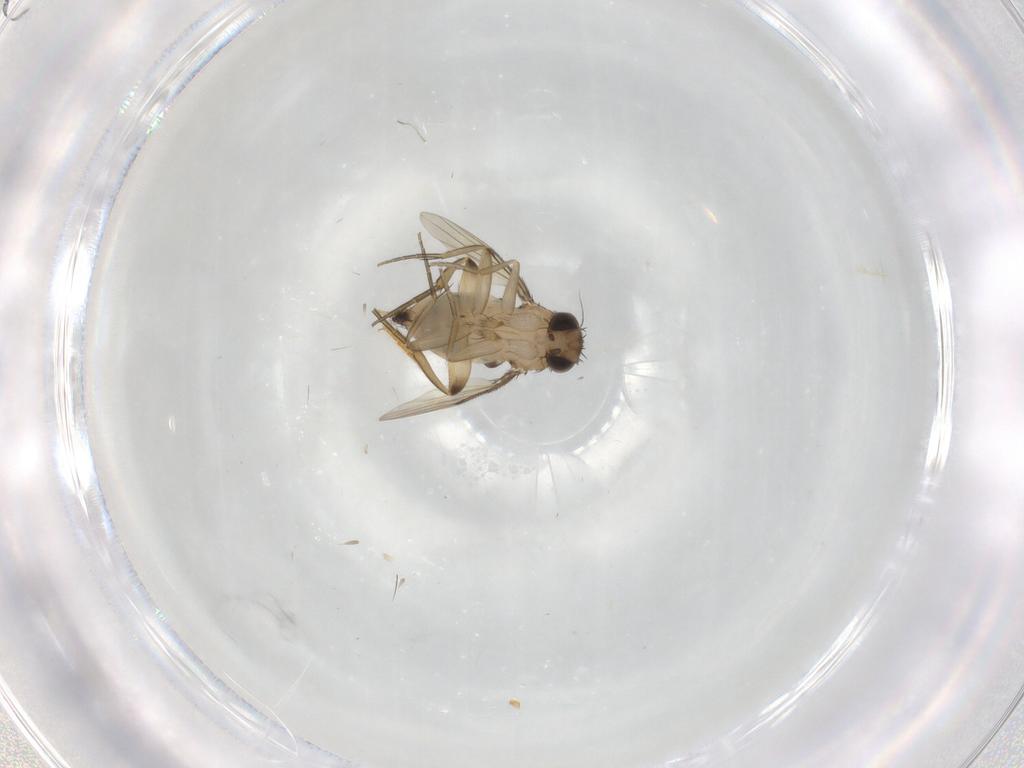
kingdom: Animalia
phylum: Arthropoda
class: Insecta
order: Diptera
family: Phoridae
